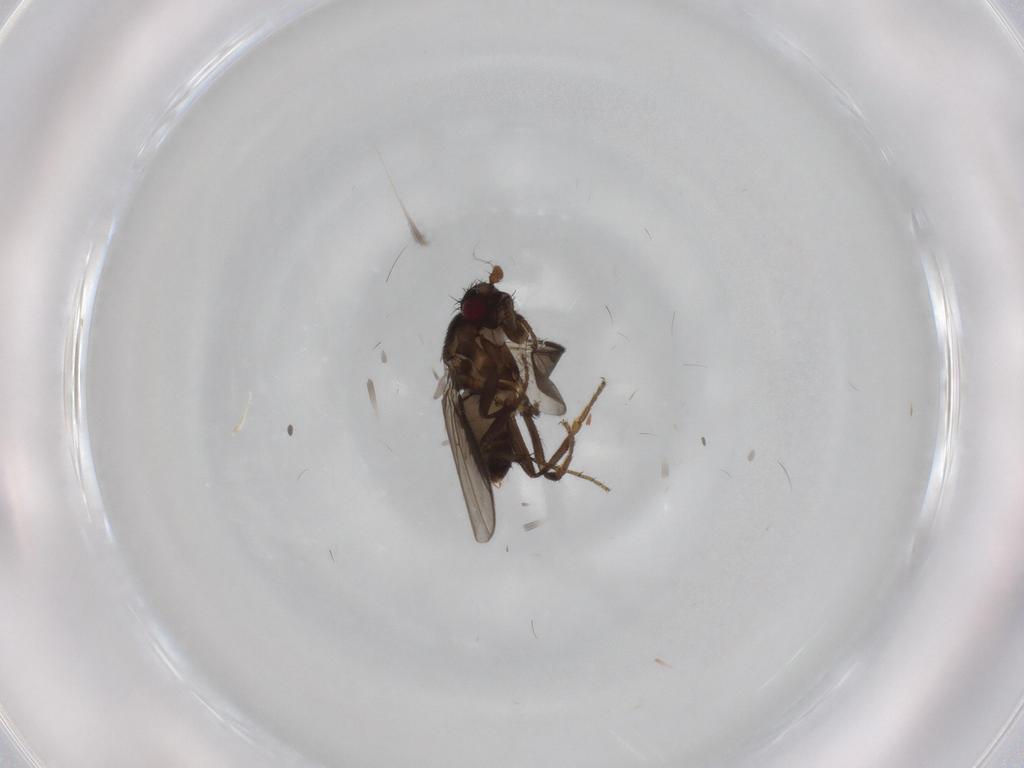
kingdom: Animalia
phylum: Arthropoda
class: Insecta
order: Diptera
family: Sphaeroceridae
